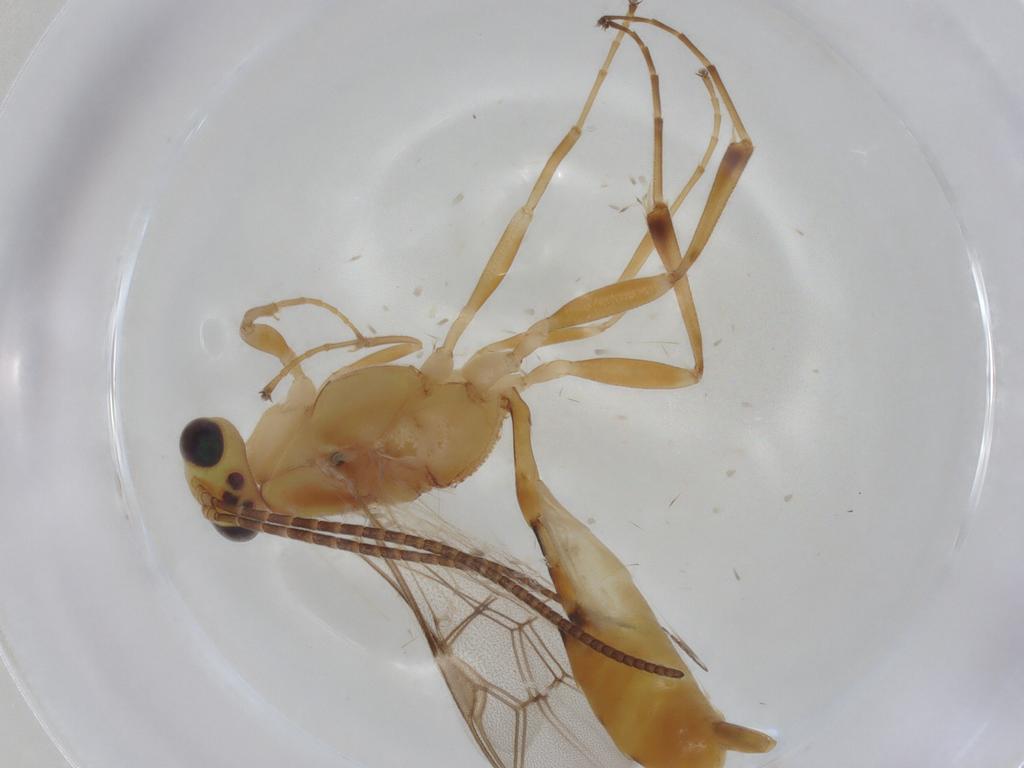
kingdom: Animalia
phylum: Arthropoda
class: Insecta
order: Hymenoptera
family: Ichneumonidae
